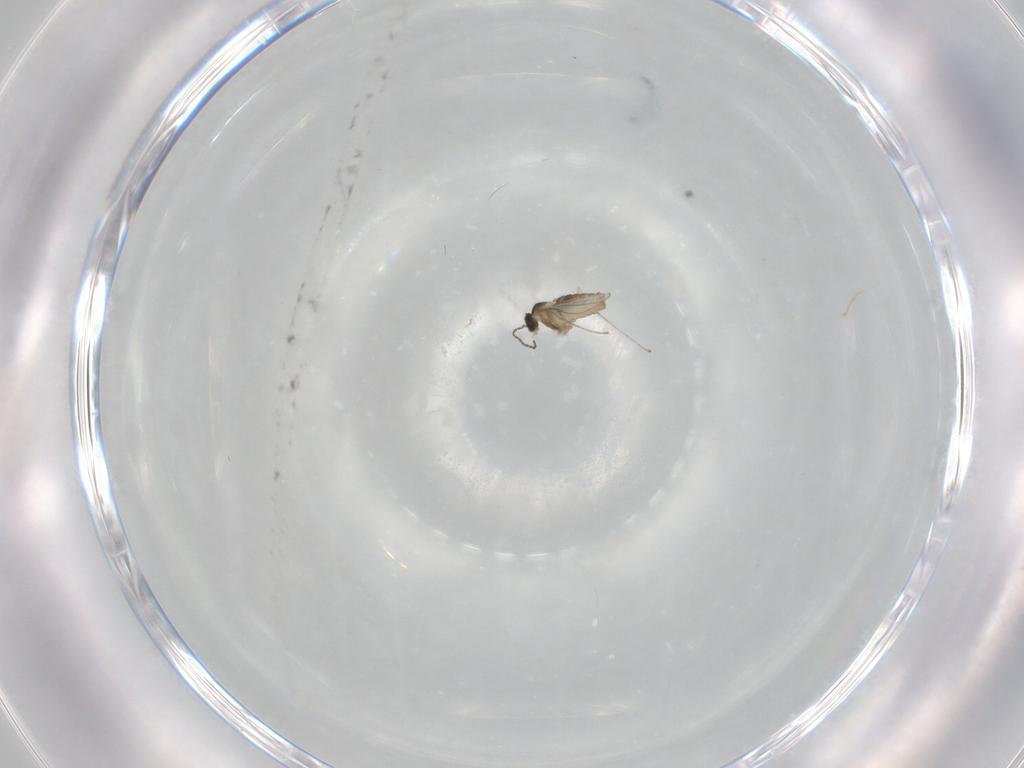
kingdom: Animalia
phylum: Arthropoda
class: Insecta
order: Diptera
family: Cecidomyiidae
